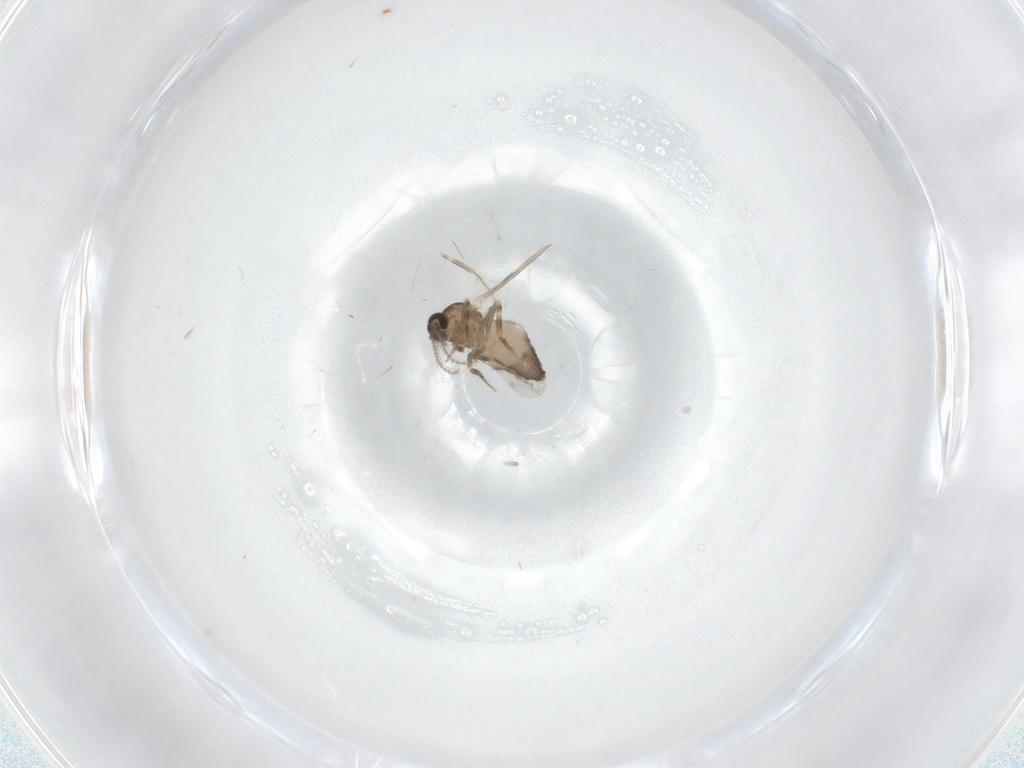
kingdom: Animalia
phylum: Arthropoda
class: Insecta
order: Diptera
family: Ceratopogonidae
